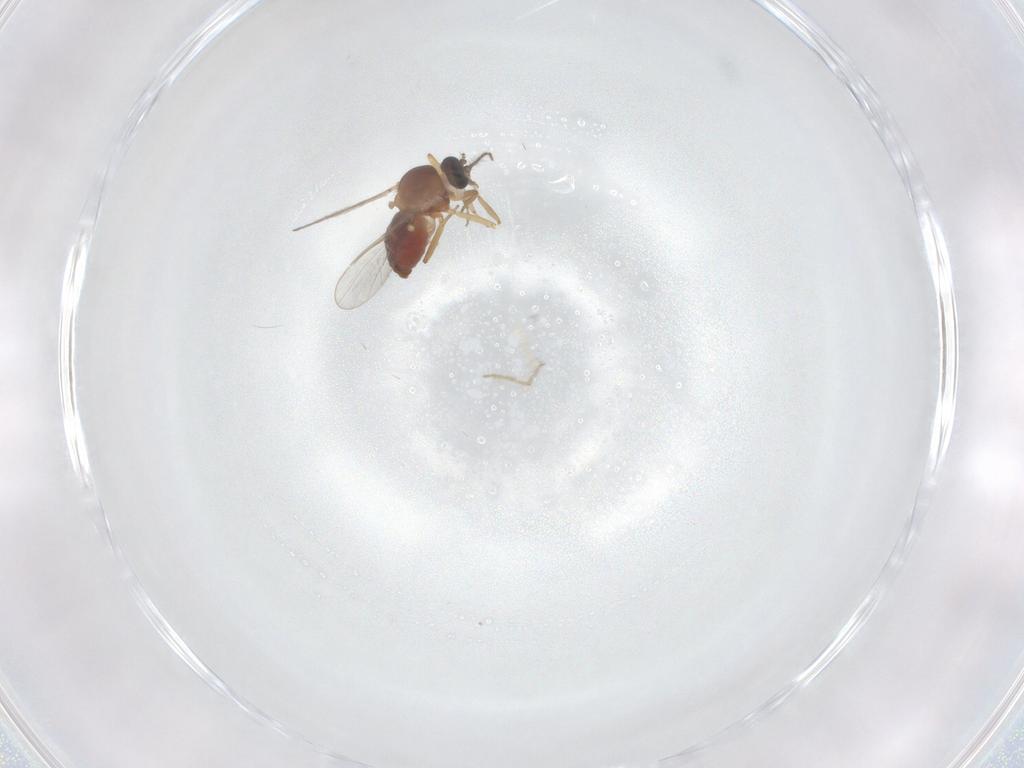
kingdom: Animalia
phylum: Arthropoda
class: Insecta
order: Diptera
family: Ceratopogonidae
